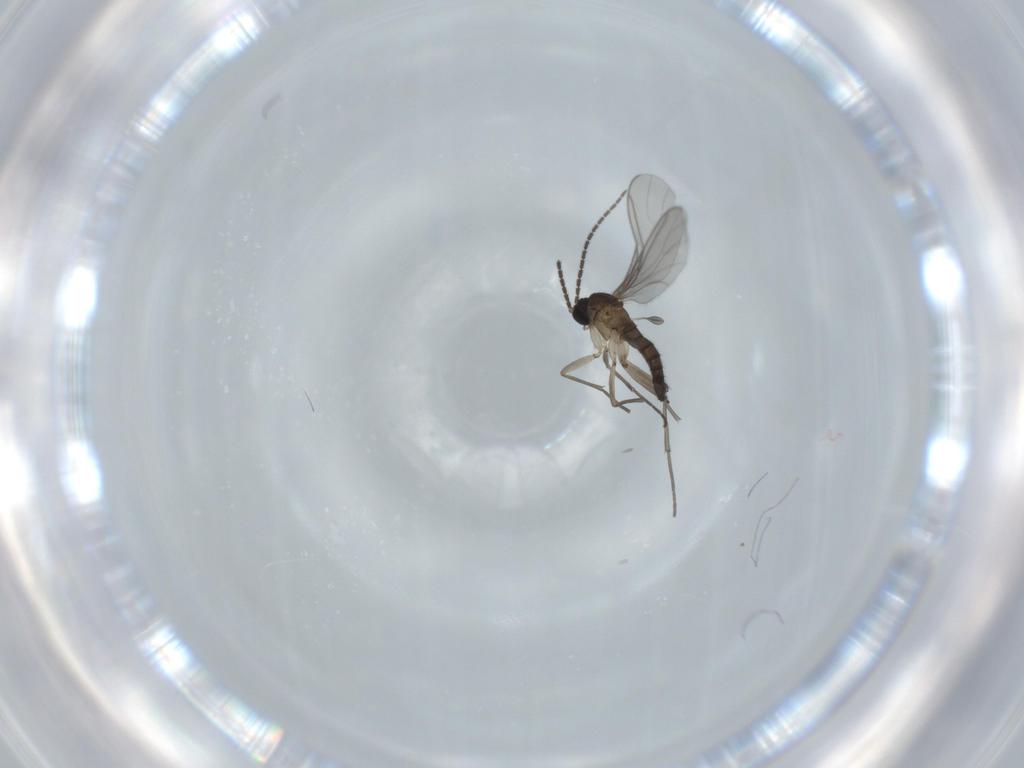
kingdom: Animalia
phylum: Arthropoda
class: Insecta
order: Diptera
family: Sciaridae
